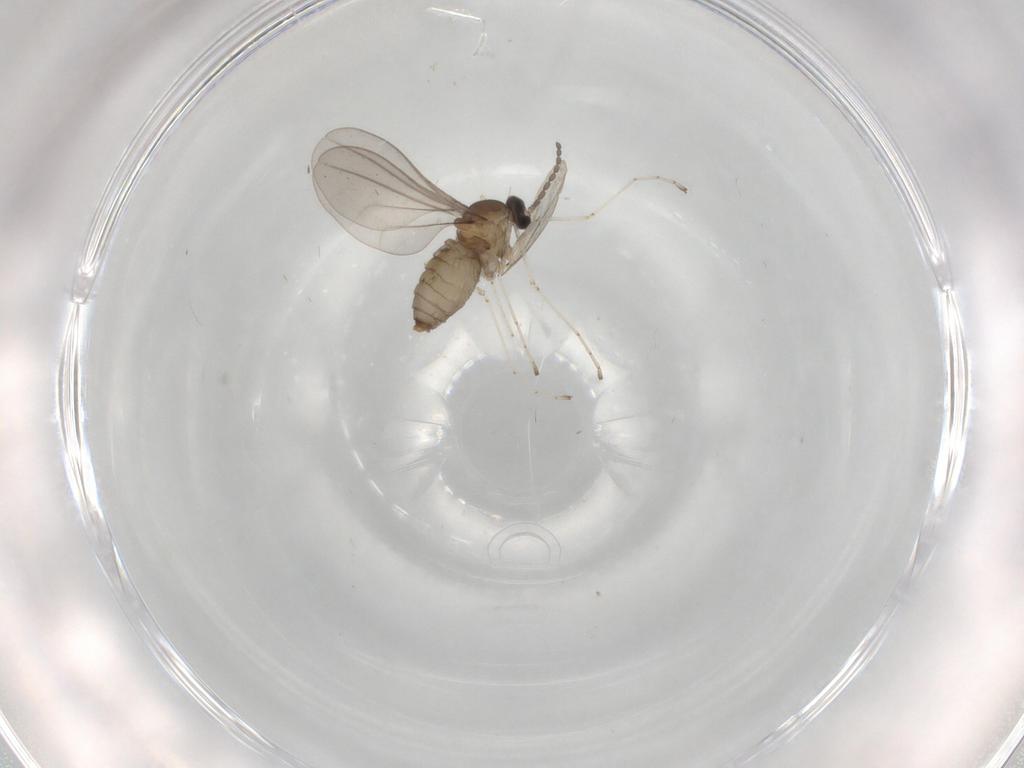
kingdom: Animalia
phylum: Arthropoda
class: Insecta
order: Diptera
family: Cecidomyiidae
